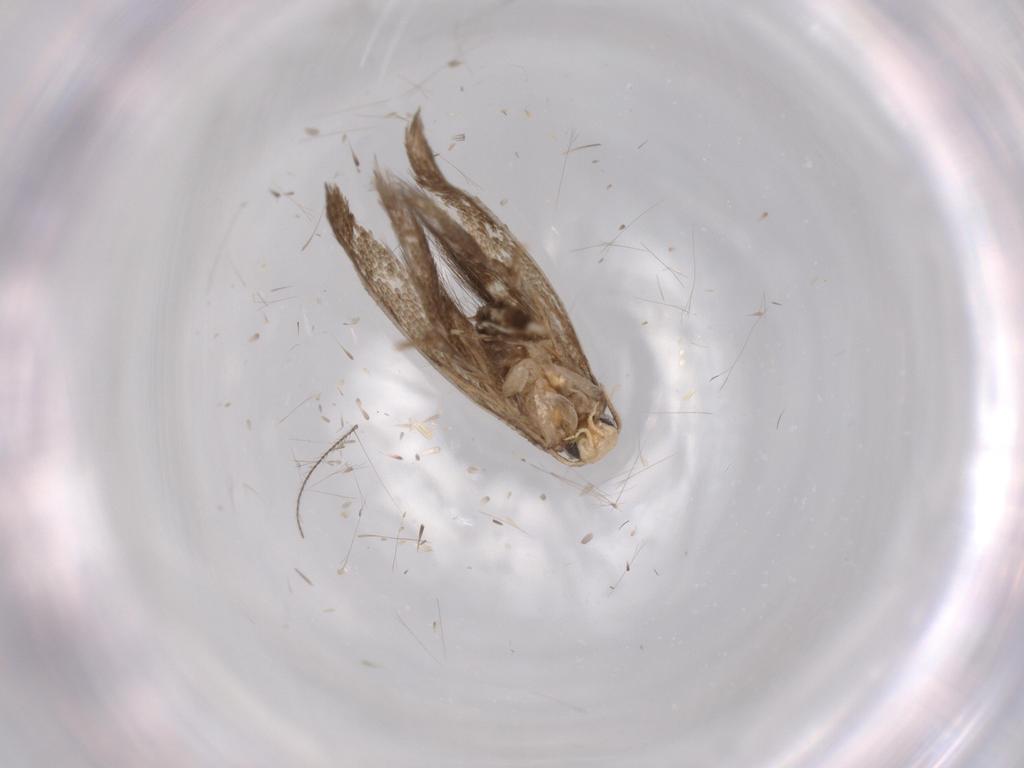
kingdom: Animalia
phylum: Arthropoda
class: Insecta
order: Lepidoptera
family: Tineidae
